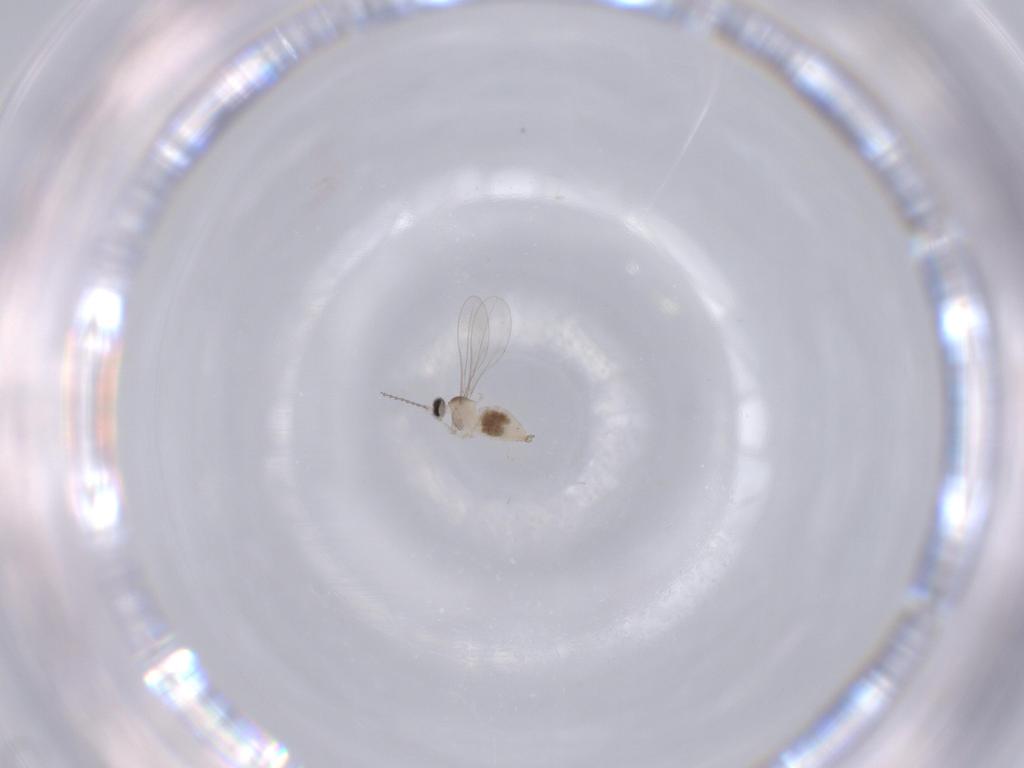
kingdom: Animalia
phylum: Arthropoda
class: Insecta
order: Diptera
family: Limoniidae
